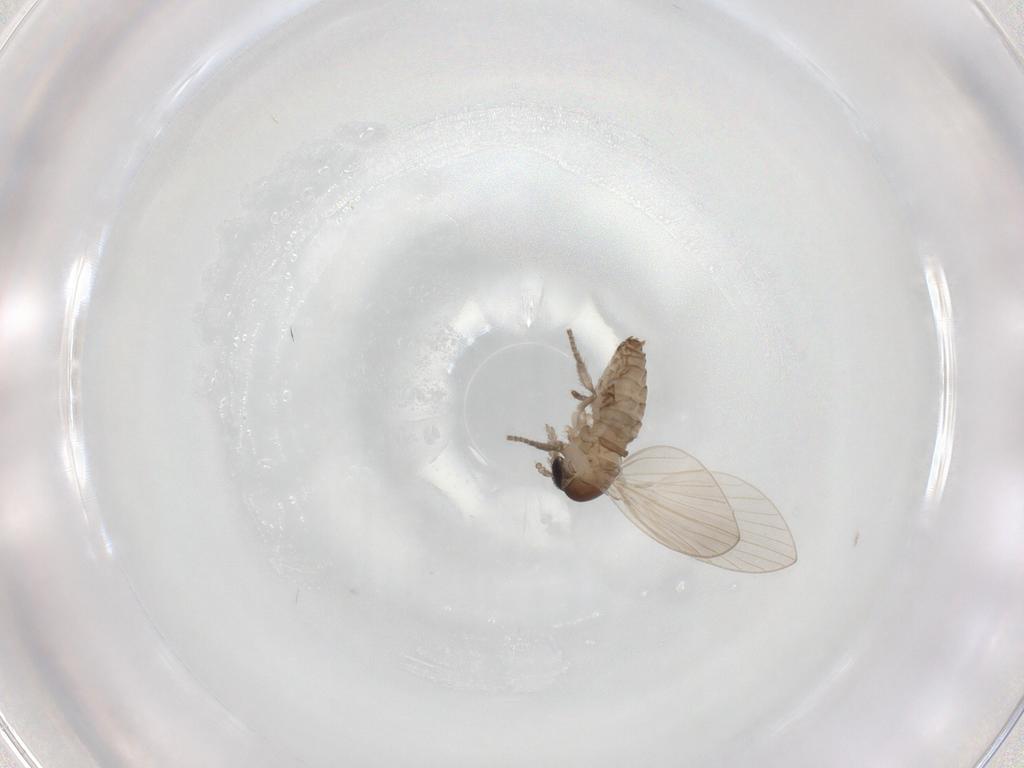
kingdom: Animalia
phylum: Arthropoda
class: Insecta
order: Diptera
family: Psychodidae
